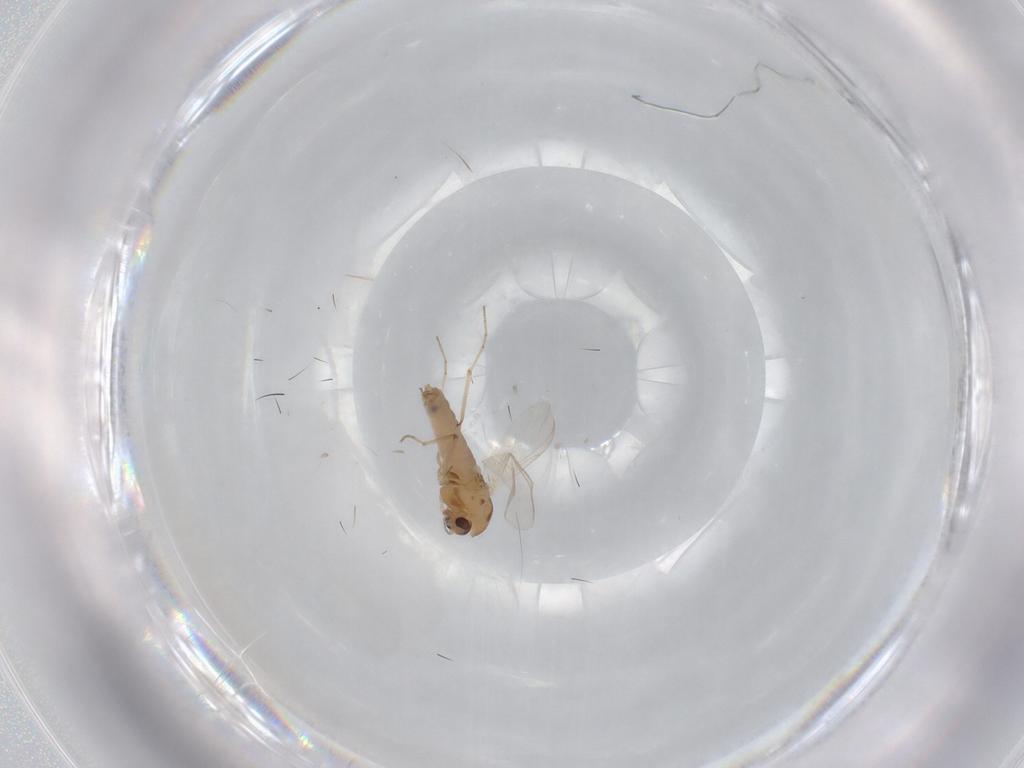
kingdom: Animalia
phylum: Arthropoda
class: Insecta
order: Diptera
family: Chironomidae
